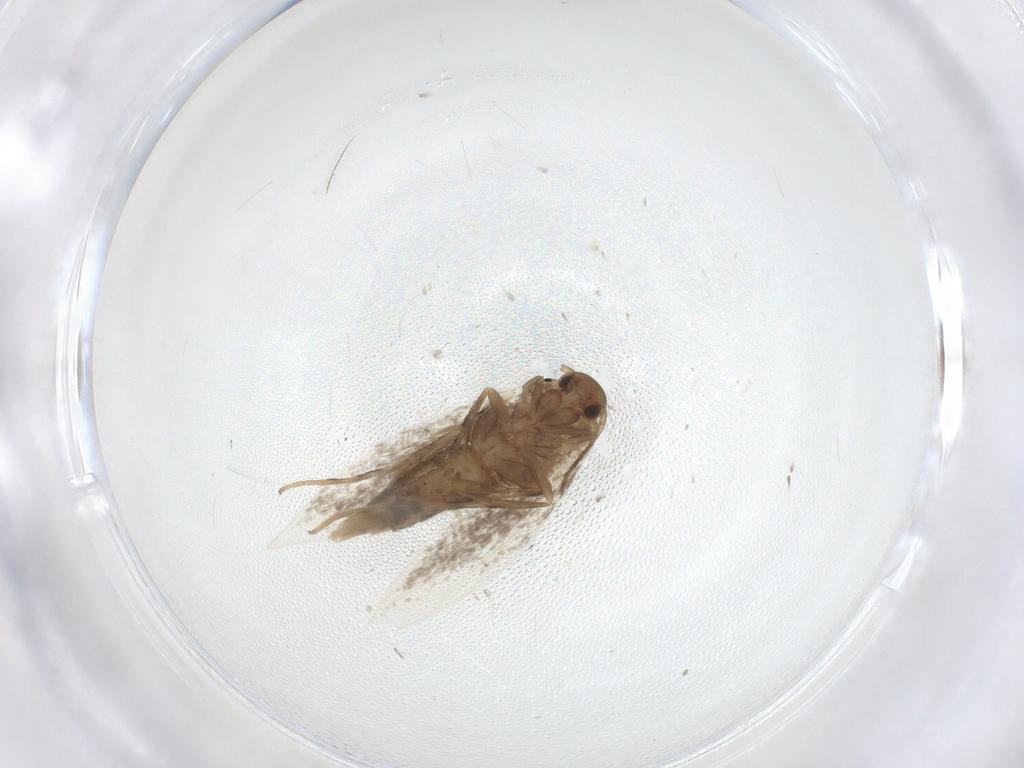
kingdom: Animalia
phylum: Arthropoda
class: Insecta
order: Lepidoptera
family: Elachistidae
